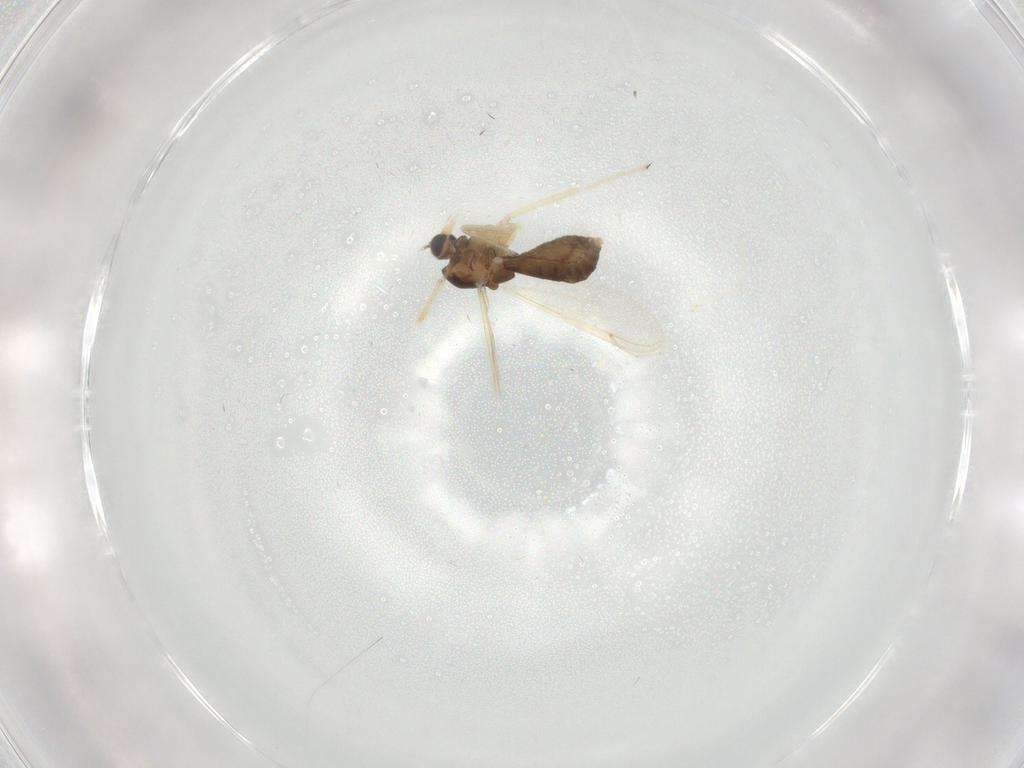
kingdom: Animalia
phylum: Arthropoda
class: Insecta
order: Diptera
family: Chironomidae
